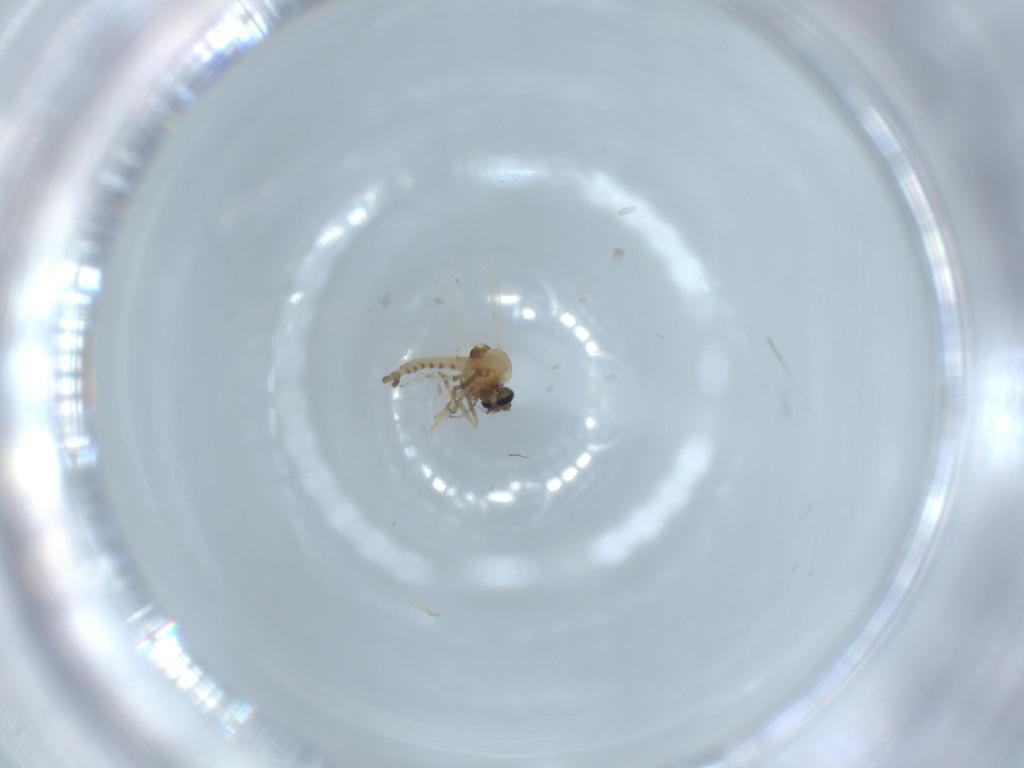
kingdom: Animalia
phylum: Arthropoda
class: Insecta
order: Diptera
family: Ceratopogonidae
